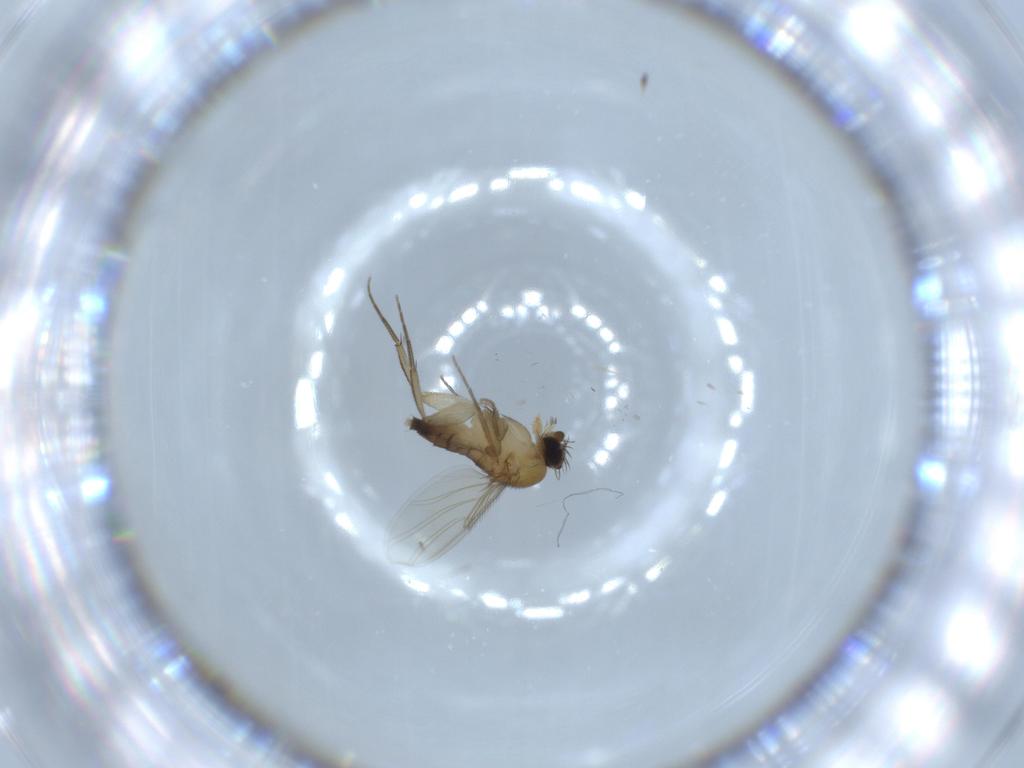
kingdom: Animalia
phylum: Arthropoda
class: Insecta
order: Diptera
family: Phoridae
